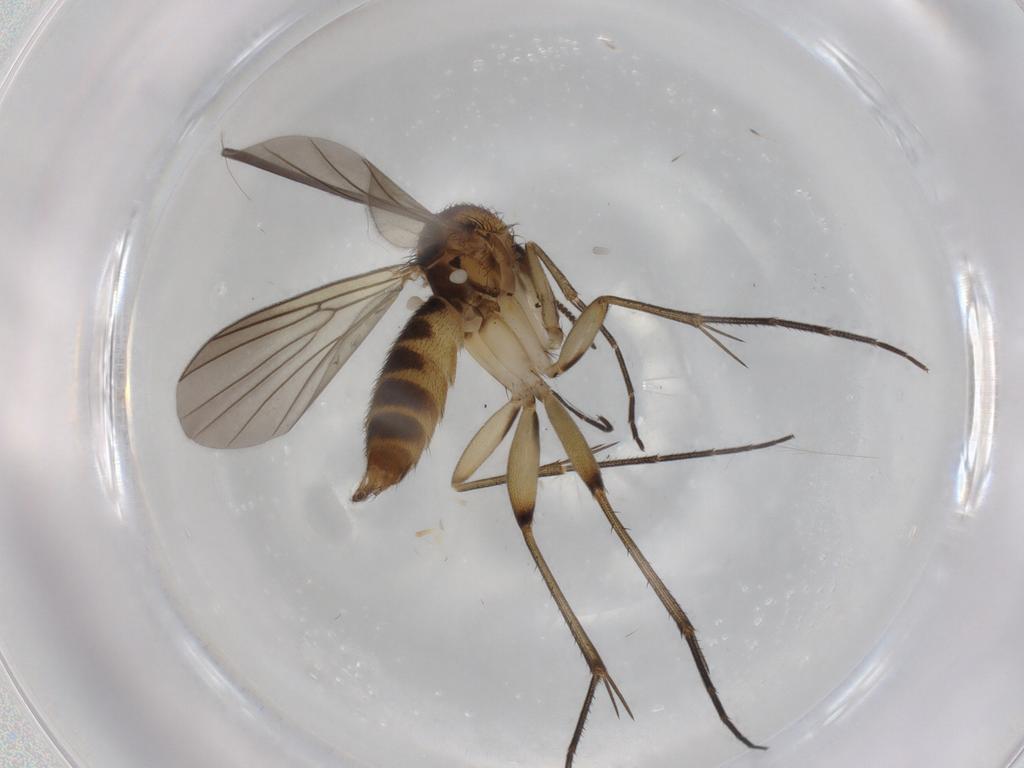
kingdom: Animalia
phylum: Arthropoda
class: Insecta
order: Diptera
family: Mycetophilidae
